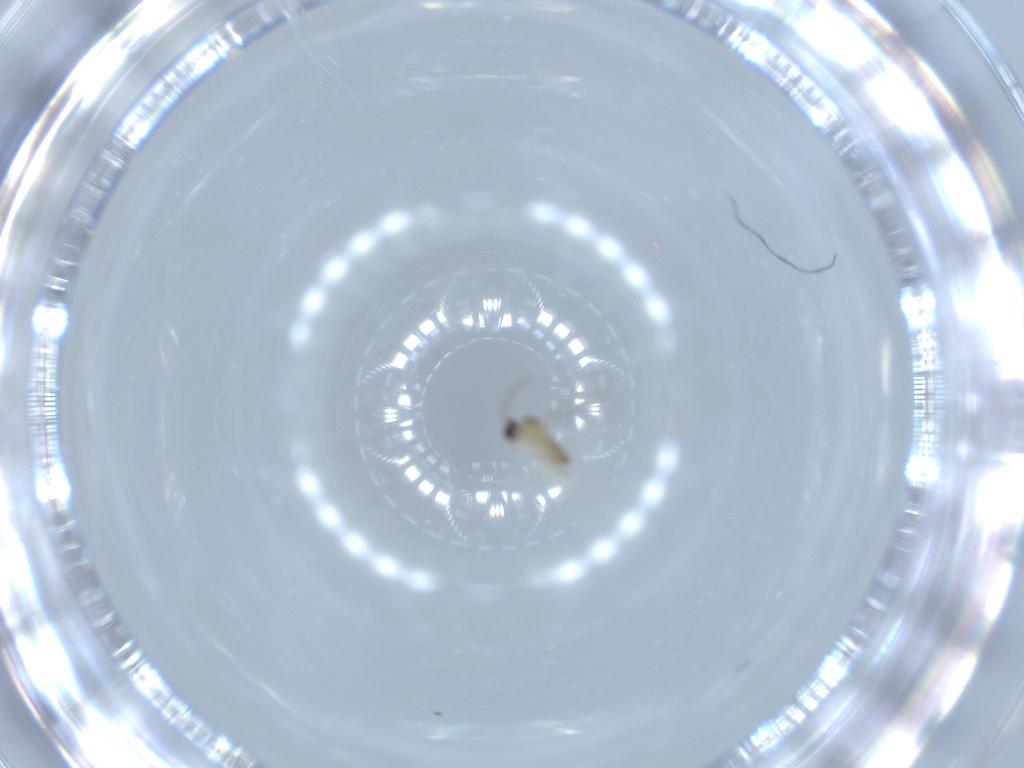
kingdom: Animalia
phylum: Arthropoda
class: Insecta
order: Diptera
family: Cecidomyiidae
